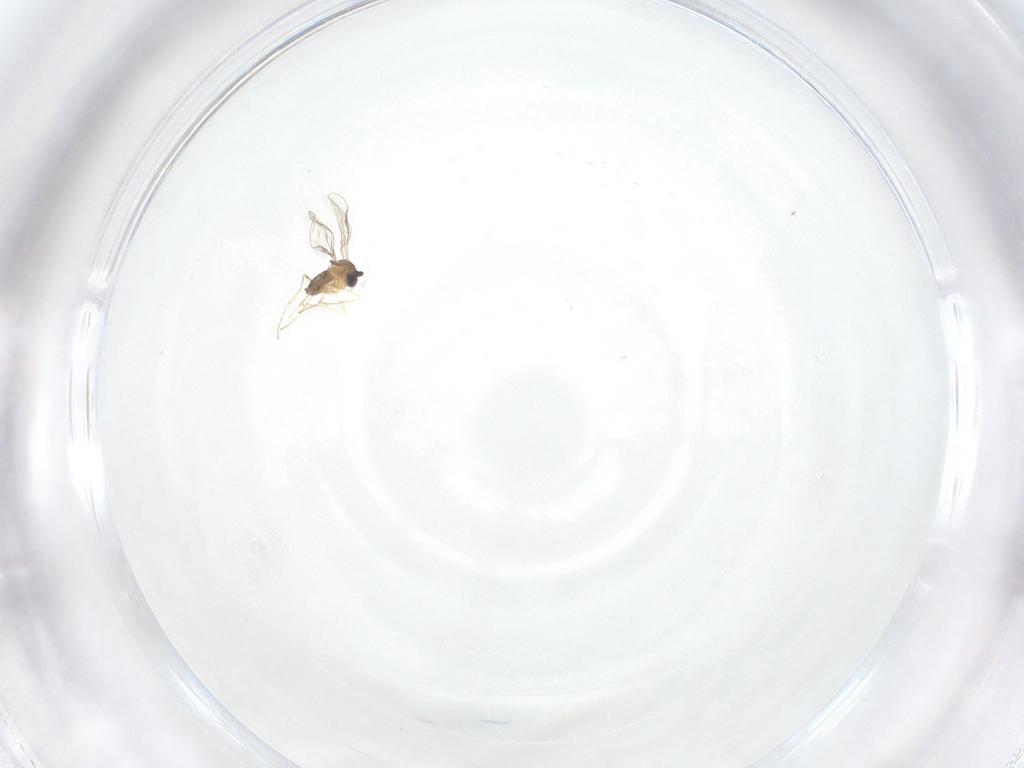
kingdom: Animalia
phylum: Arthropoda
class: Insecta
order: Diptera
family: Cecidomyiidae
